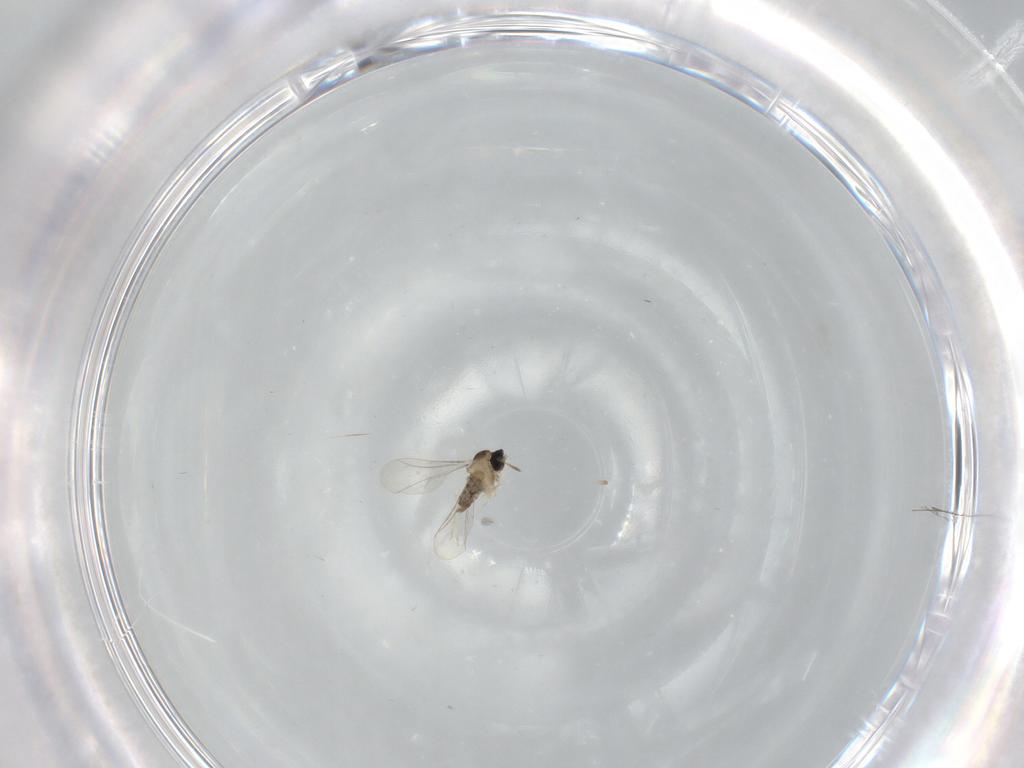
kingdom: Animalia
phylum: Arthropoda
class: Insecta
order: Diptera
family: Cecidomyiidae
